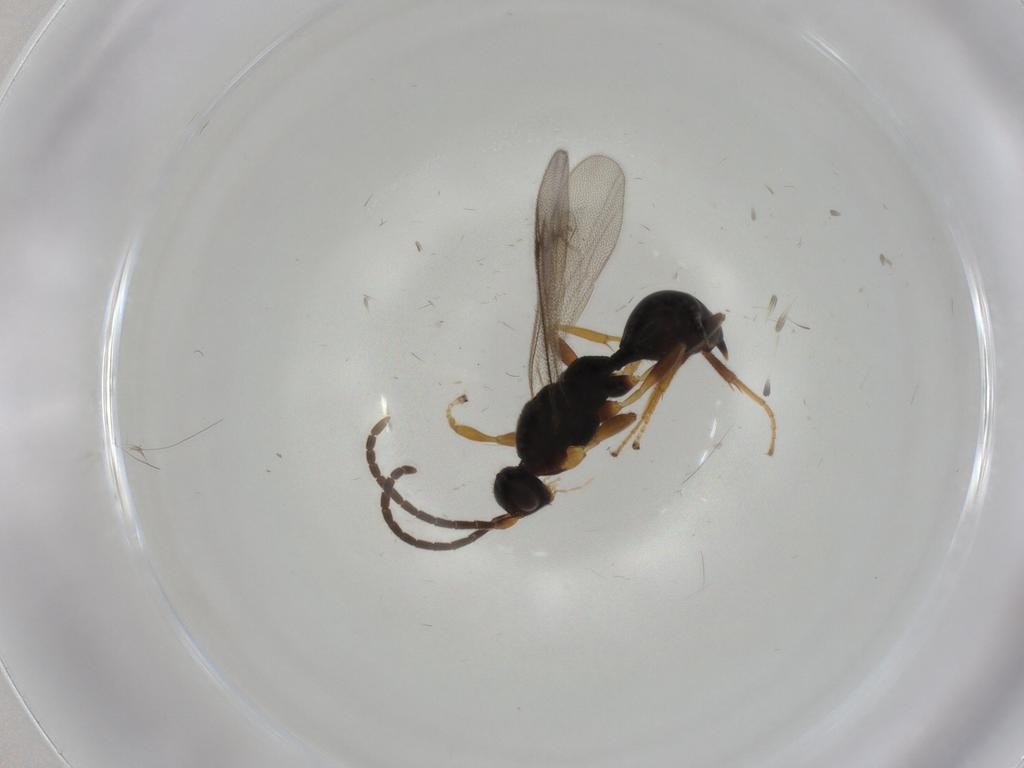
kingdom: Animalia
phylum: Arthropoda
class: Insecta
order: Hymenoptera
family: Proctotrupidae
